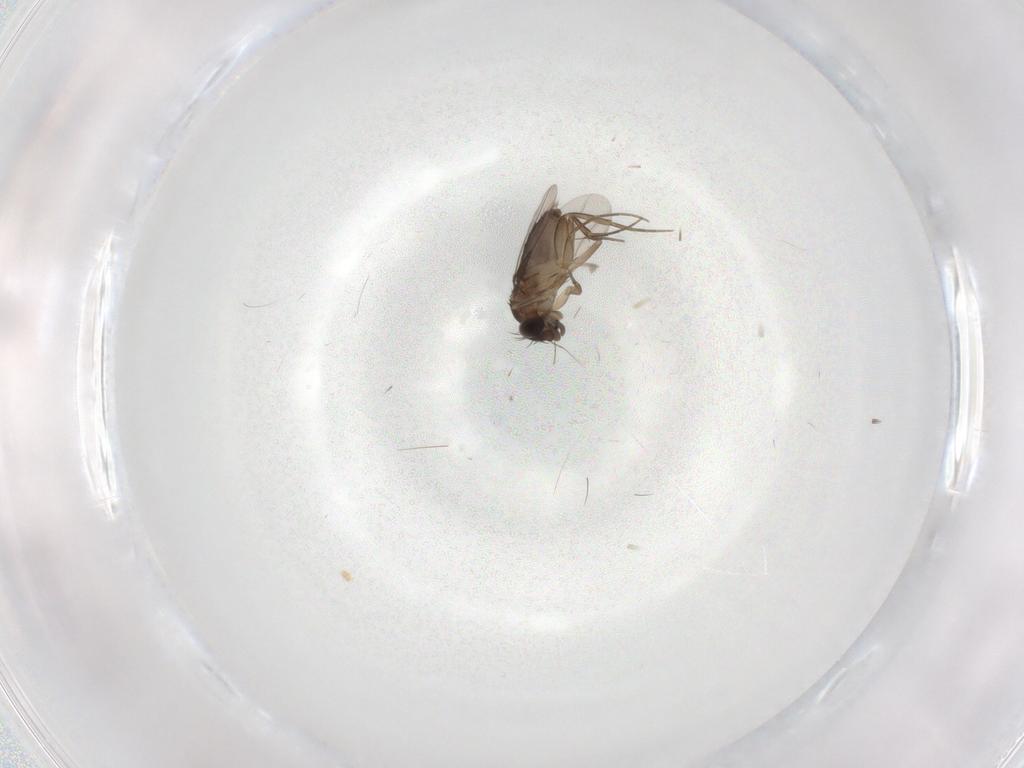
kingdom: Animalia
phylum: Arthropoda
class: Insecta
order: Diptera
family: Phoridae
